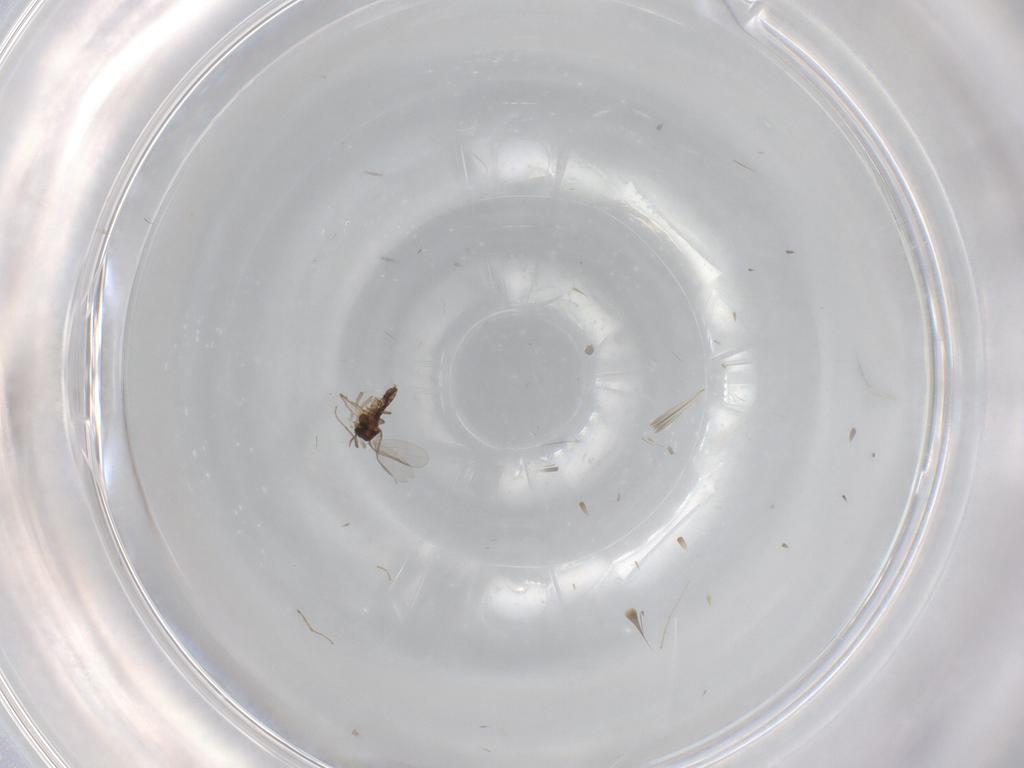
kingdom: Animalia
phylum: Arthropoda
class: Insecta
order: Diptera
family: Chironomidae
